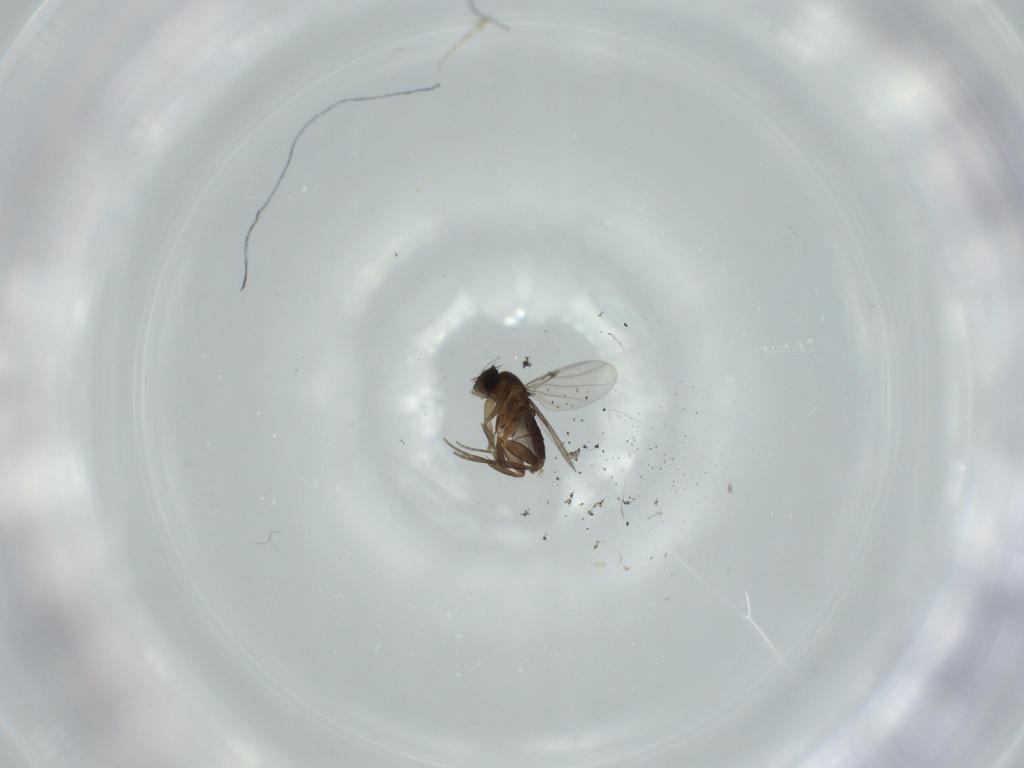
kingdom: Animalia
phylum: Arthropoda
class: Insecta
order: Diptera
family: Phoridae
